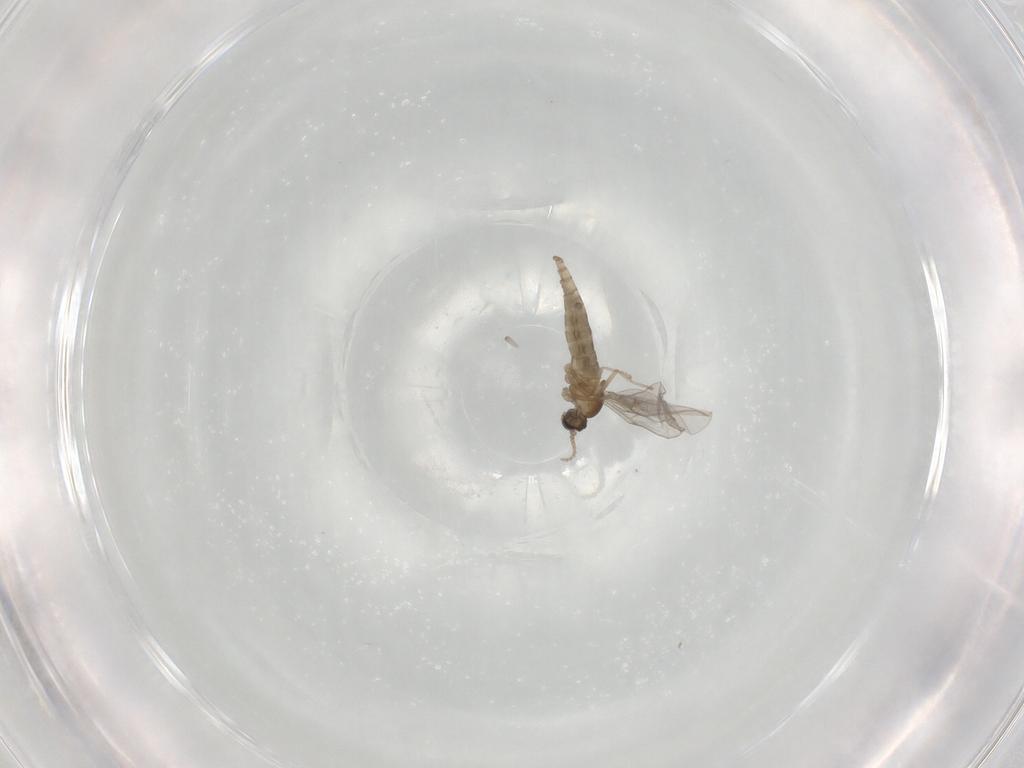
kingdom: Animalia
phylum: Arthropoda
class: Insecta
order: Diptera
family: Cecidomyiidae
